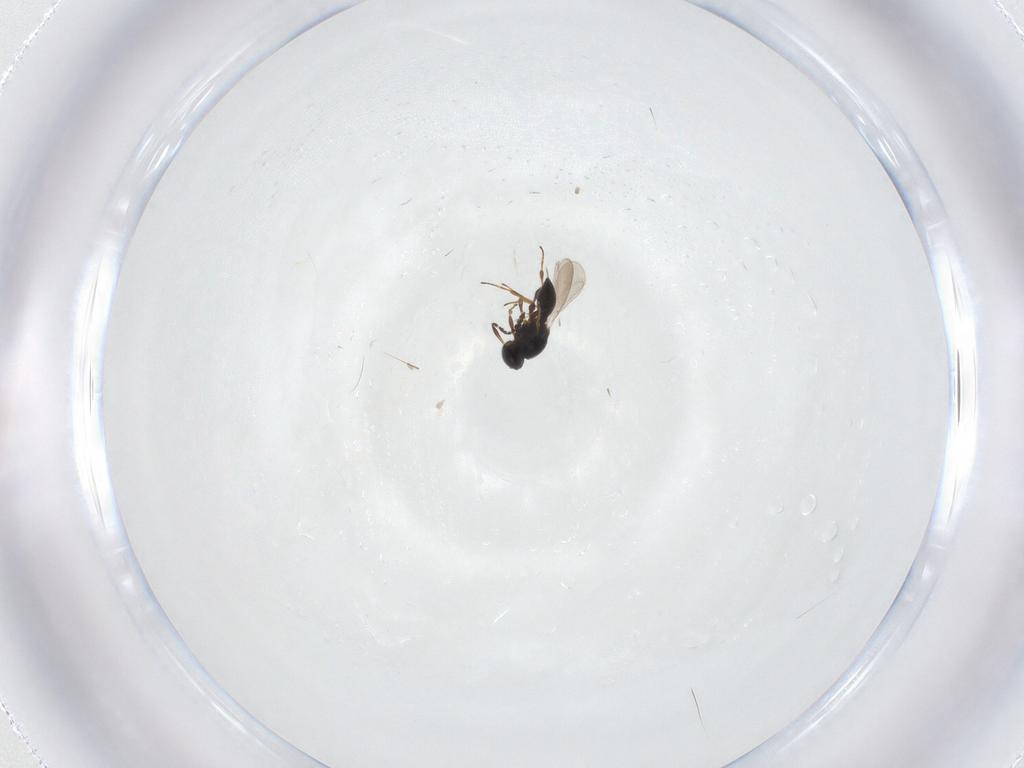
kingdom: Animalia
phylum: Arthropoda
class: Insecta
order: Hymenoptera
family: Platygastridae
